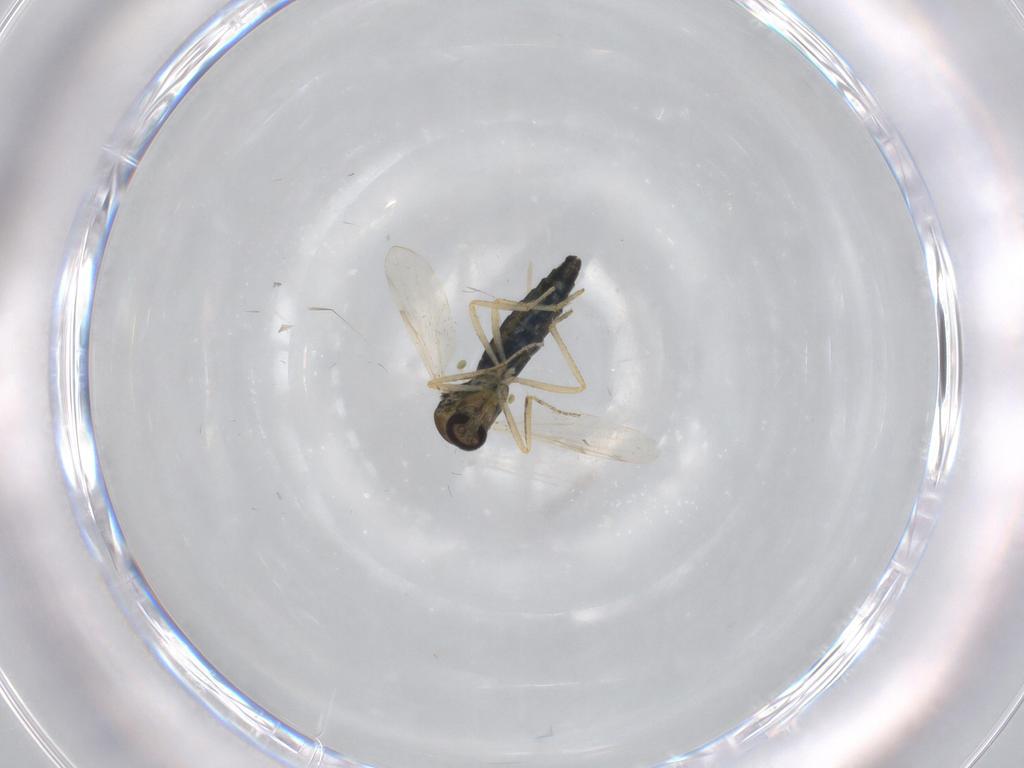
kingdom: Animalia
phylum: Arthropoda
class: Insecta
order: Diptera
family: Ceratopogonidae
